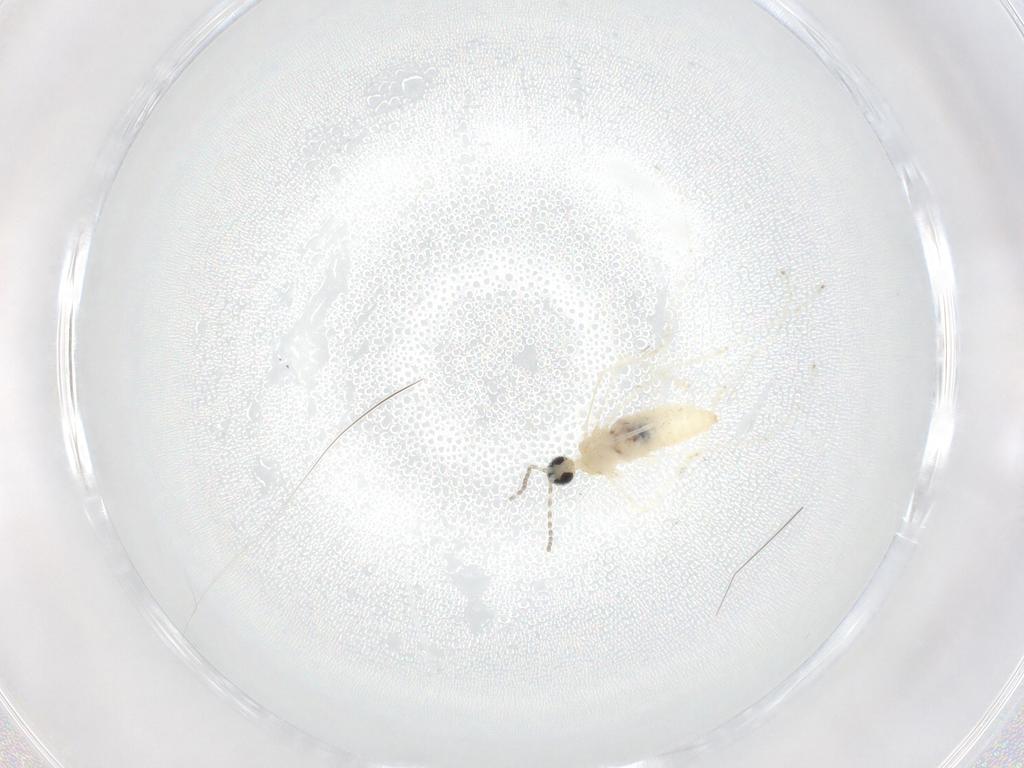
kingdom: Animalia
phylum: Arthropoda
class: Insecta
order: Diptera
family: Cecidomyiidae
